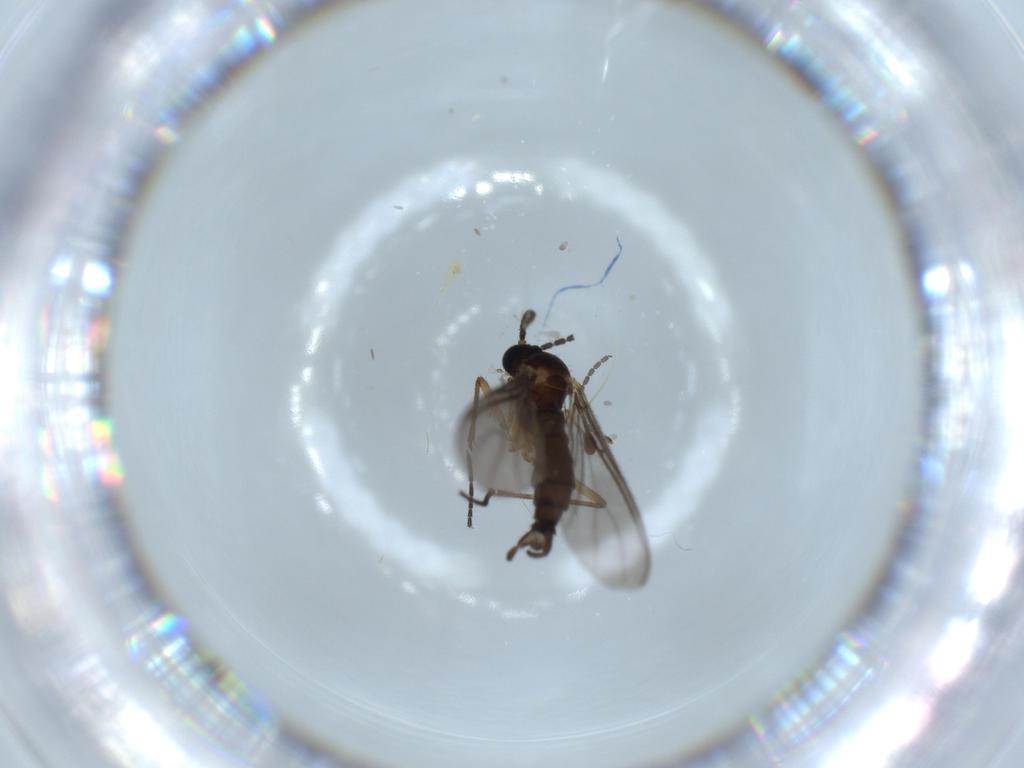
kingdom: Animalia
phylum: Arthropoda
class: Insecta
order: Diptera
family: Sciaridae
